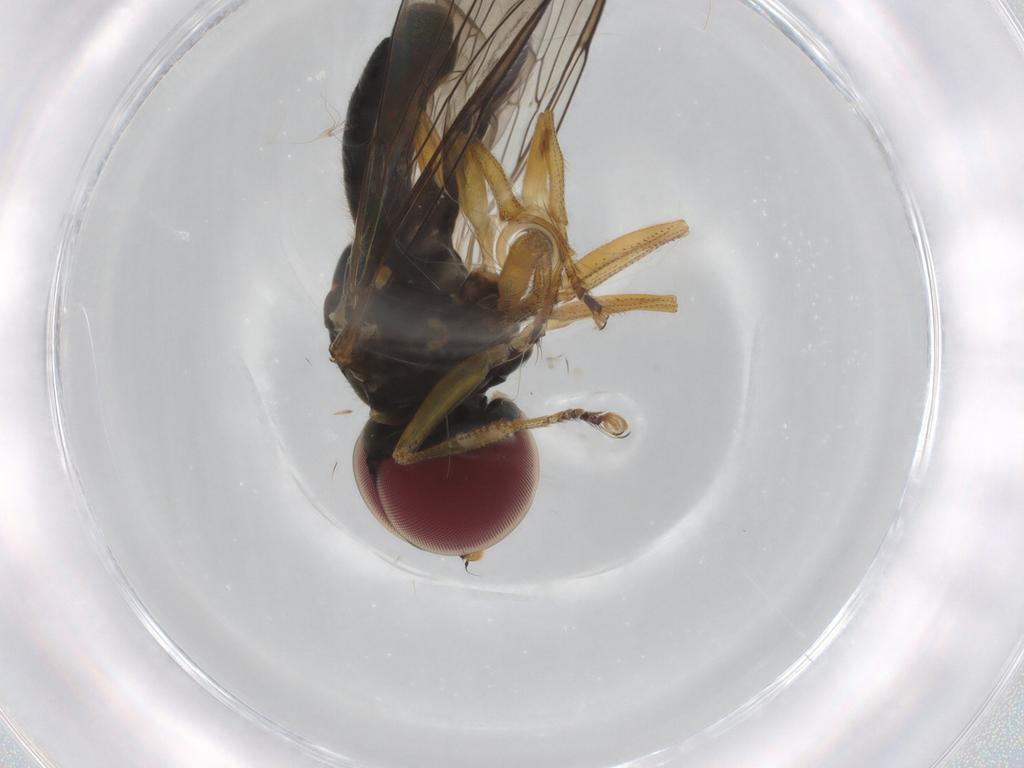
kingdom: Animalia
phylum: Arthropoda
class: Insecta
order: Diptera
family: Pipunculidae
